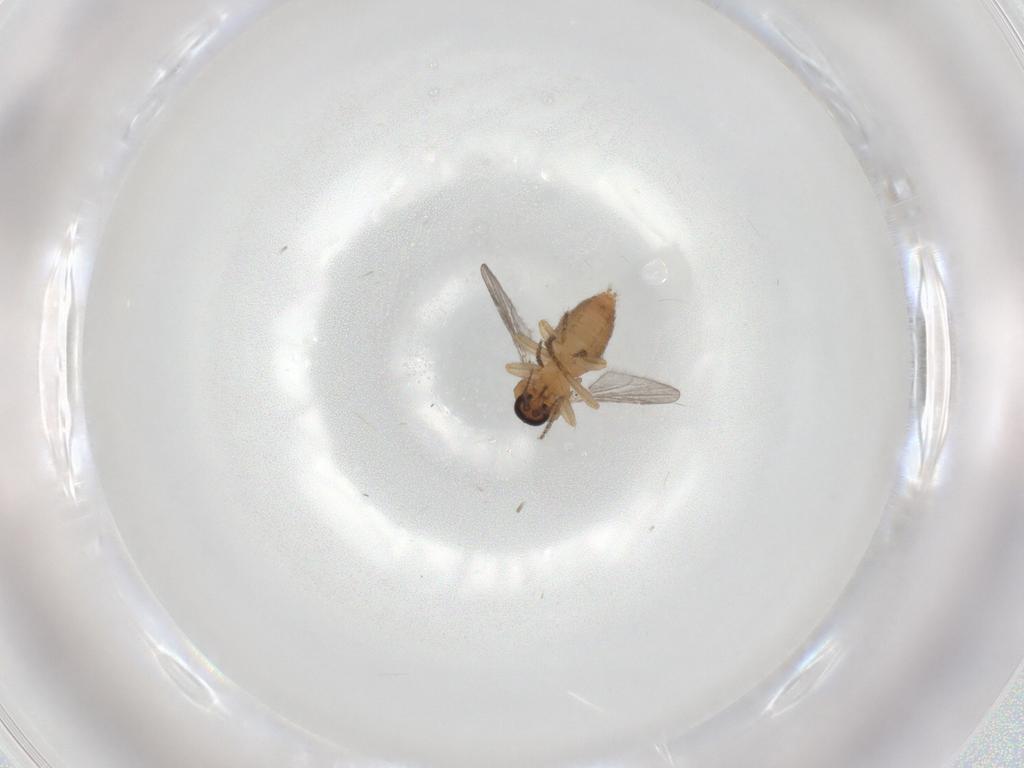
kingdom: Animalia
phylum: Arthropoda
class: Insecta
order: Diptera
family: Ceratopogonidae
